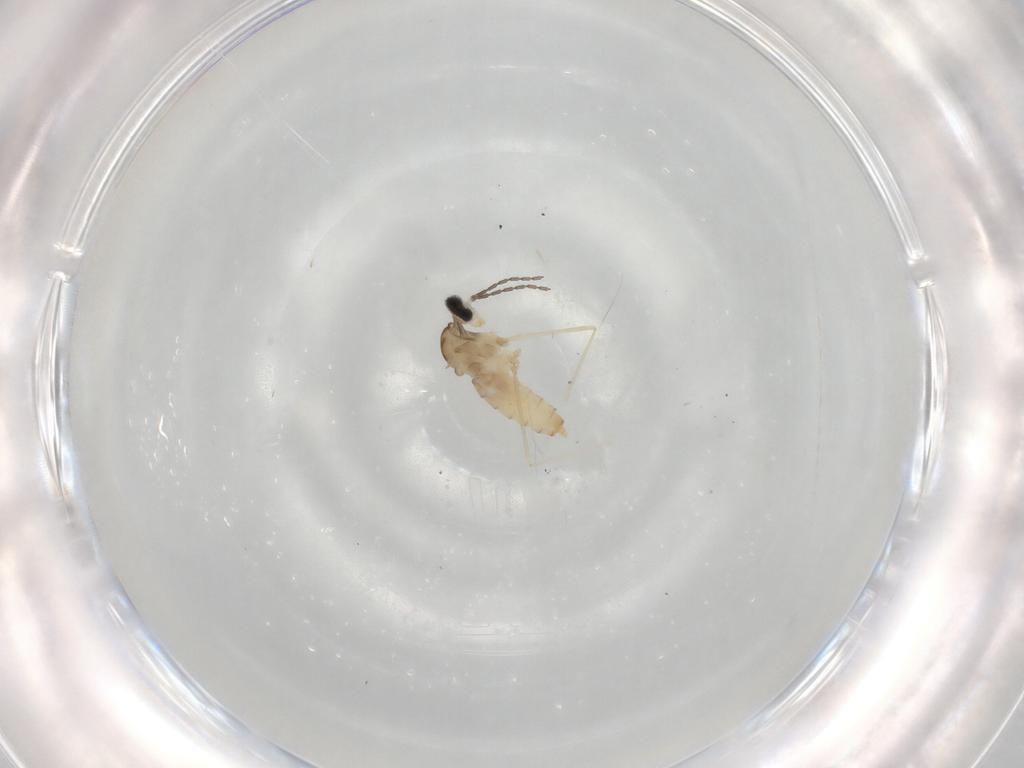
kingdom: Animalia
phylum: Arthropoda
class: Insecta
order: Diptera
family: Cecidomyiidae
